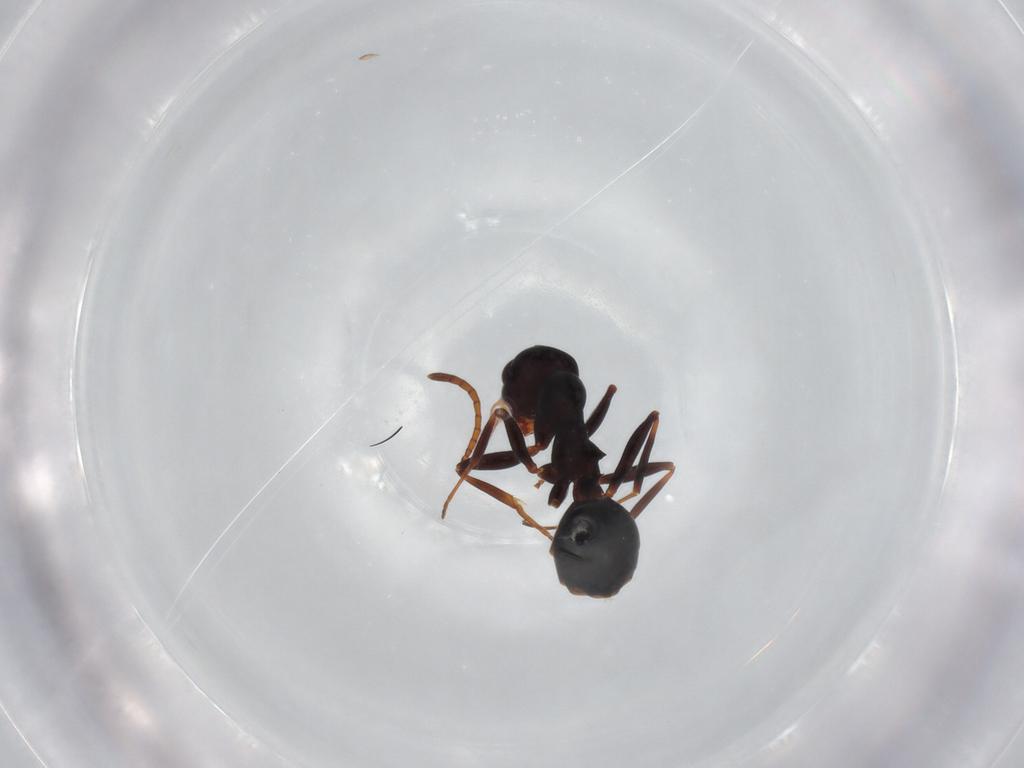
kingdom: Animalia
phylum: Arthropoda
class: Insecta
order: Hymenoptera
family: Formicidae
